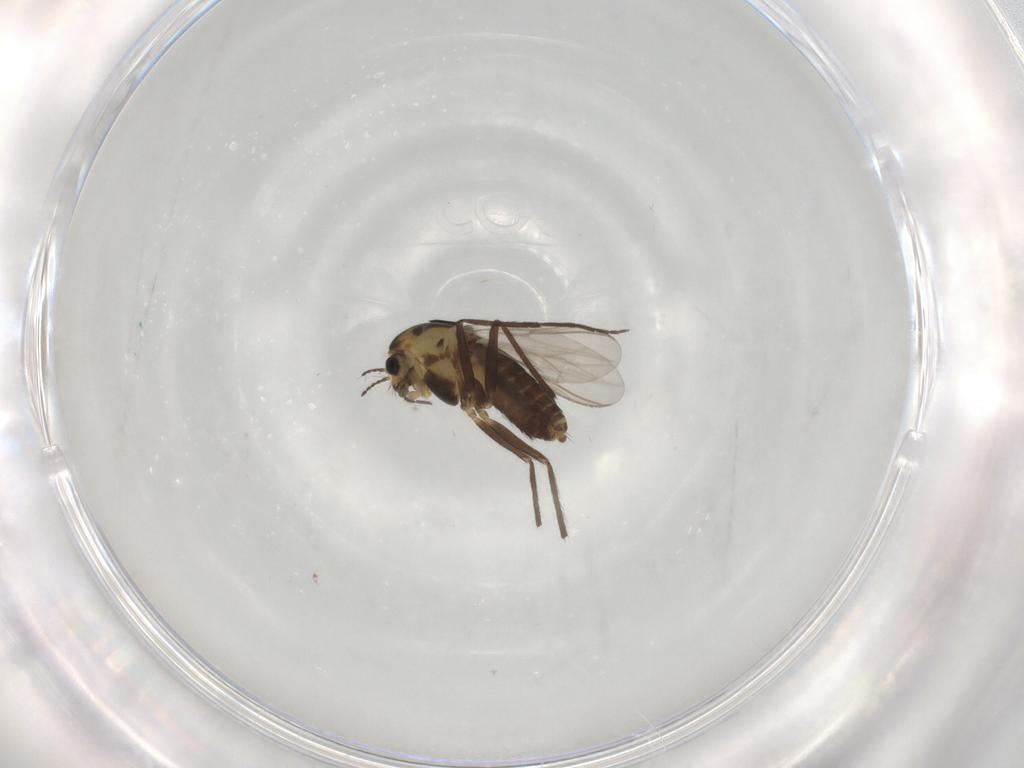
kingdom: Animalia
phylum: Arthropoda
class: Insecta
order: Diptera
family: Chironomidae
